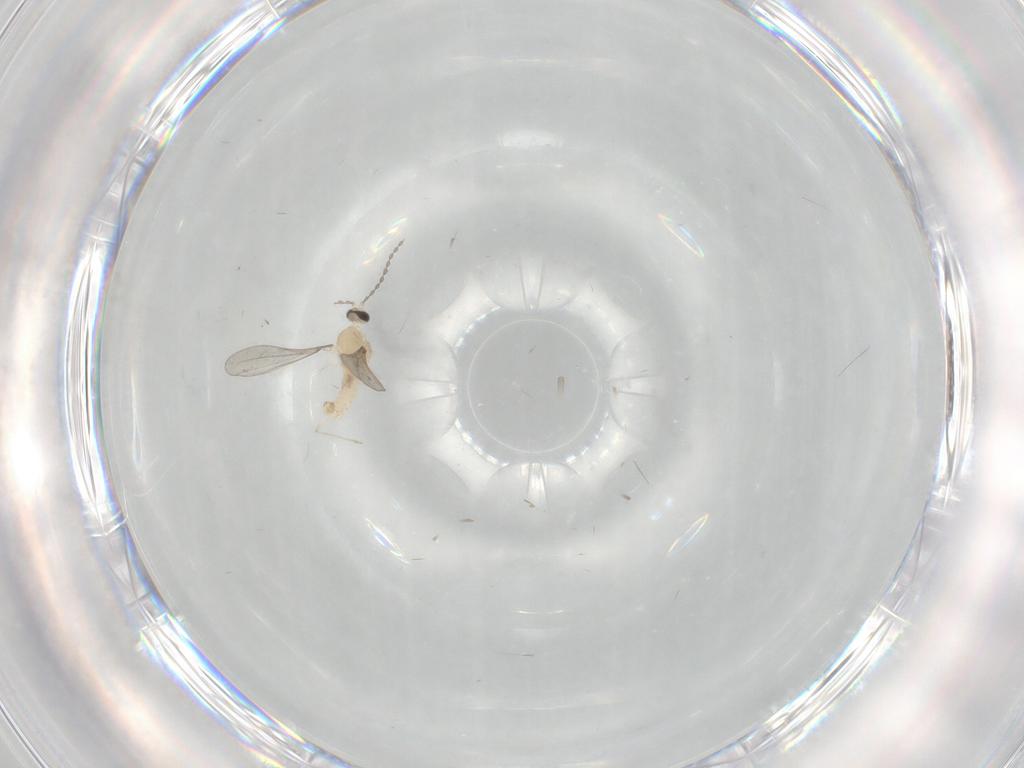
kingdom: Animalia
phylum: Arthropoda
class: Insecta
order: Diptera
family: Cecidomyiidae
